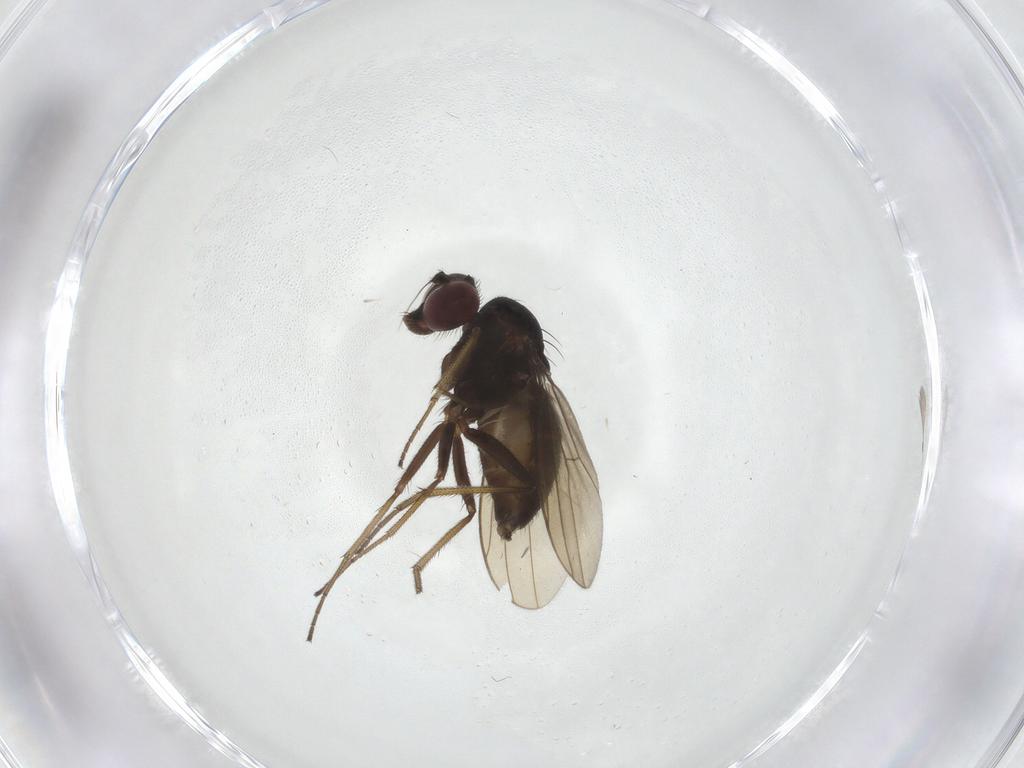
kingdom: Animalia
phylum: Arthropoda
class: Insecta
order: Diptera
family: Dolichopodidae
